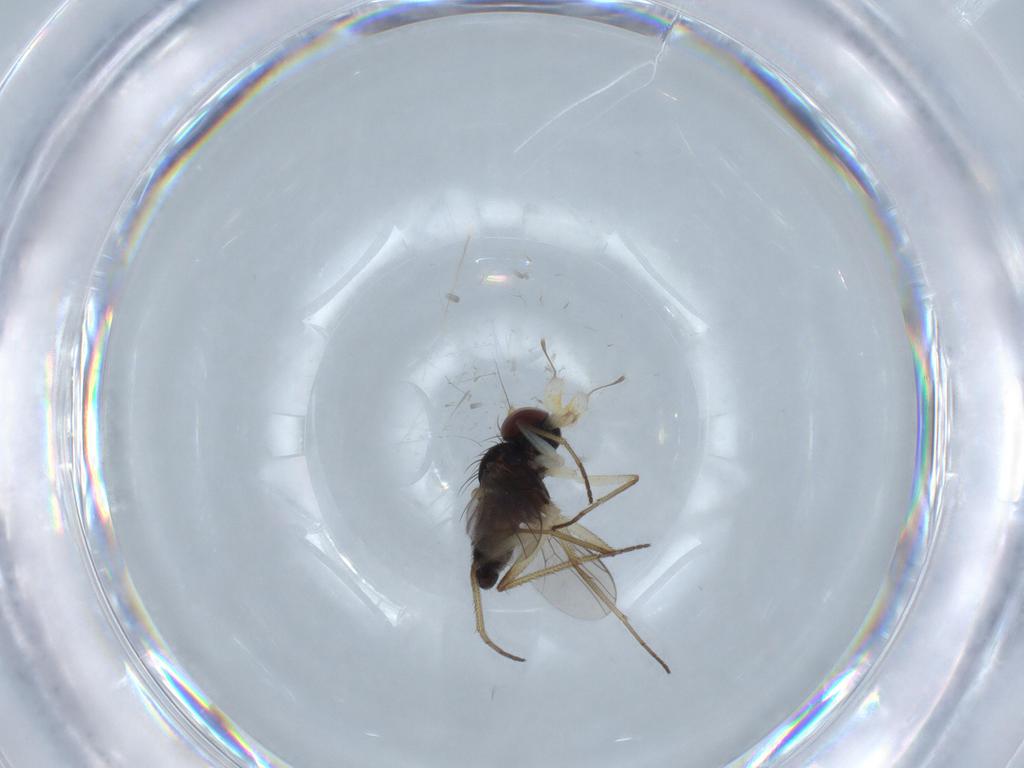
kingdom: Animalia
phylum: Arthropoda
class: Insecta
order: Diptera
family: Dolichopodidae
